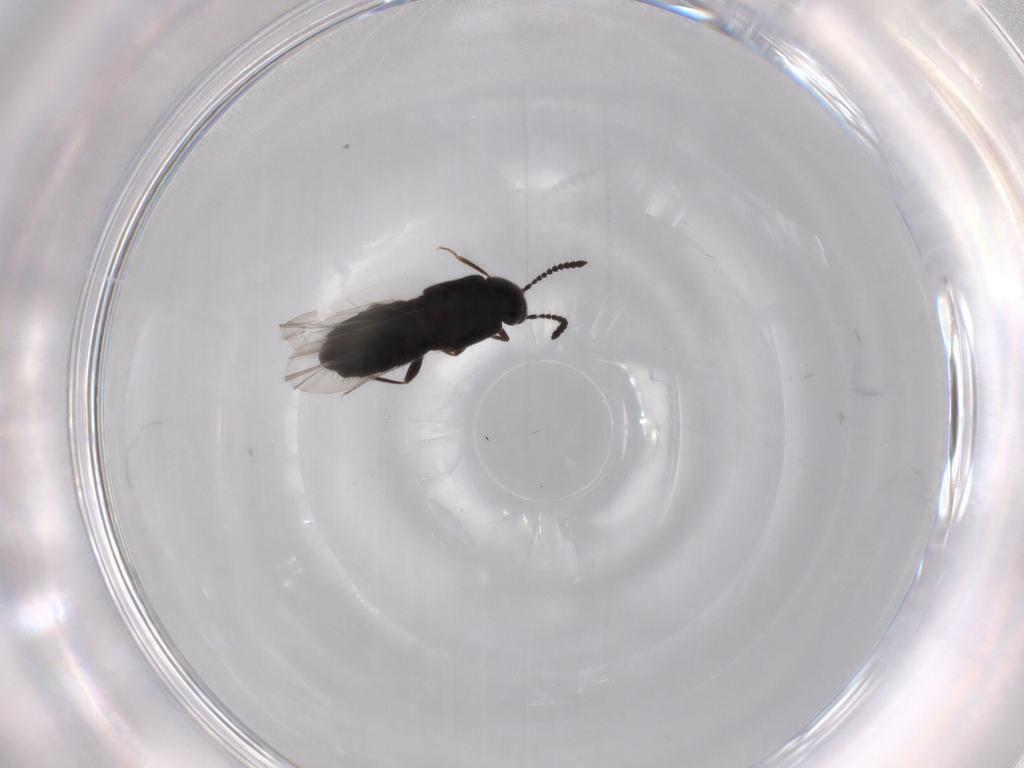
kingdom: Animalia
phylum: Arthropoda
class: Insecta
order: Coleoptera
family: Staphylinidae
